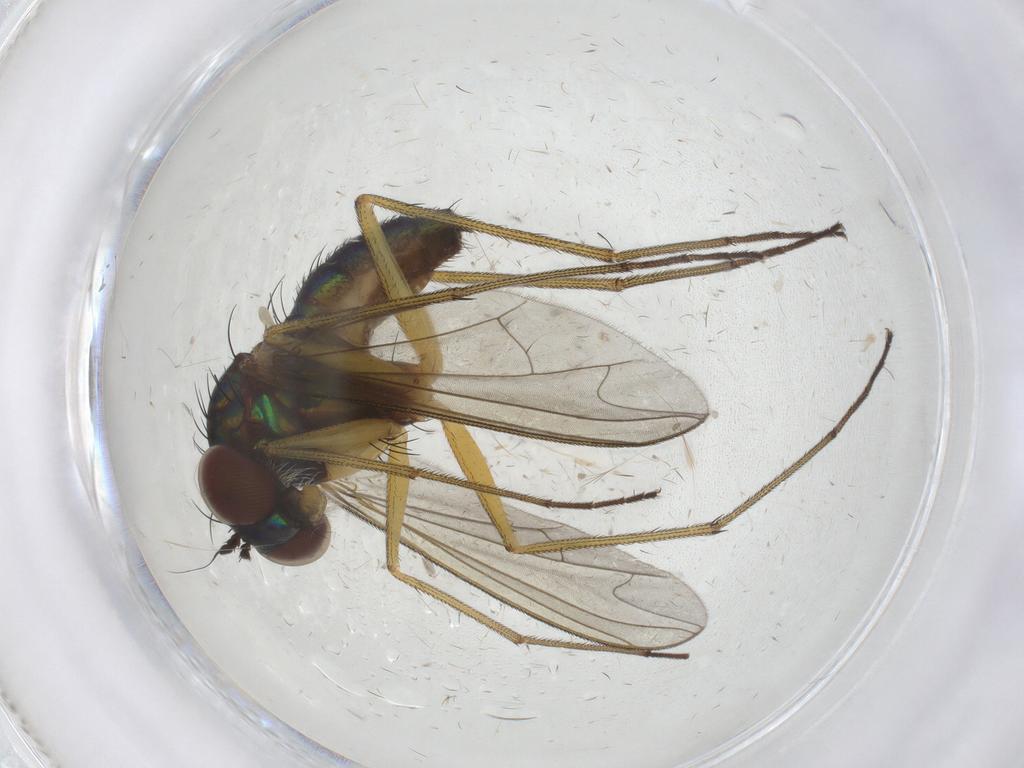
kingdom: Animalia
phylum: Arthropoda
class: Insecta
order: Diptera
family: Dolichopodidae
